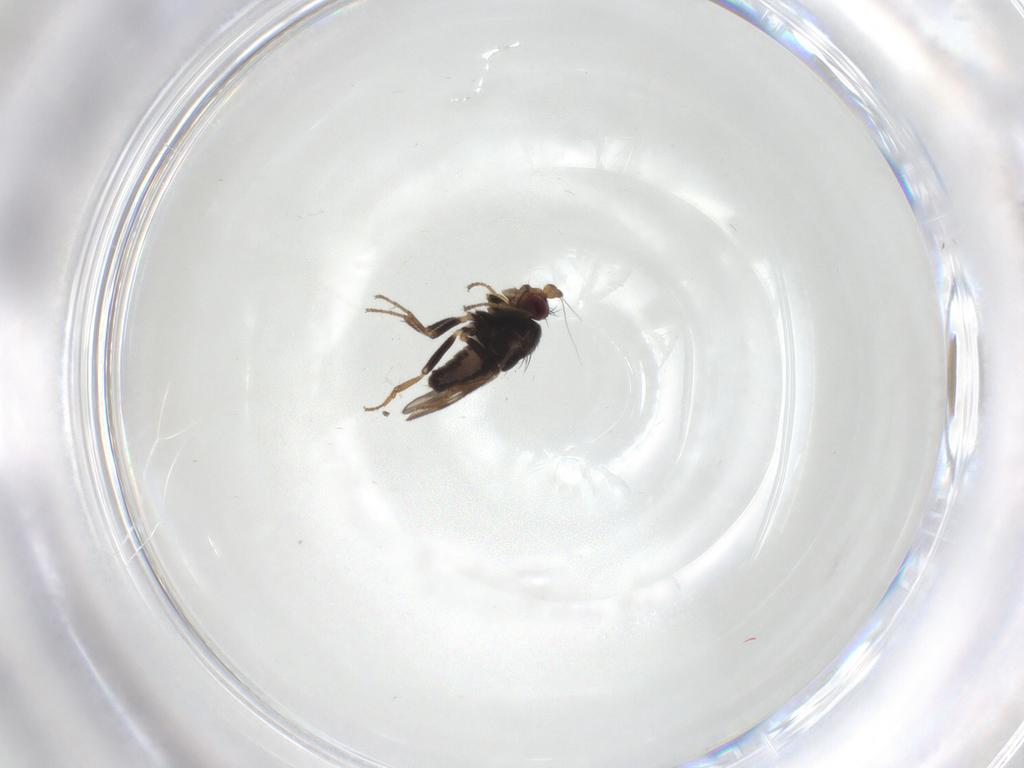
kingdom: Animalia
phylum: Arthropoda
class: Insecta
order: Diptera
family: Sphaeroceridae
